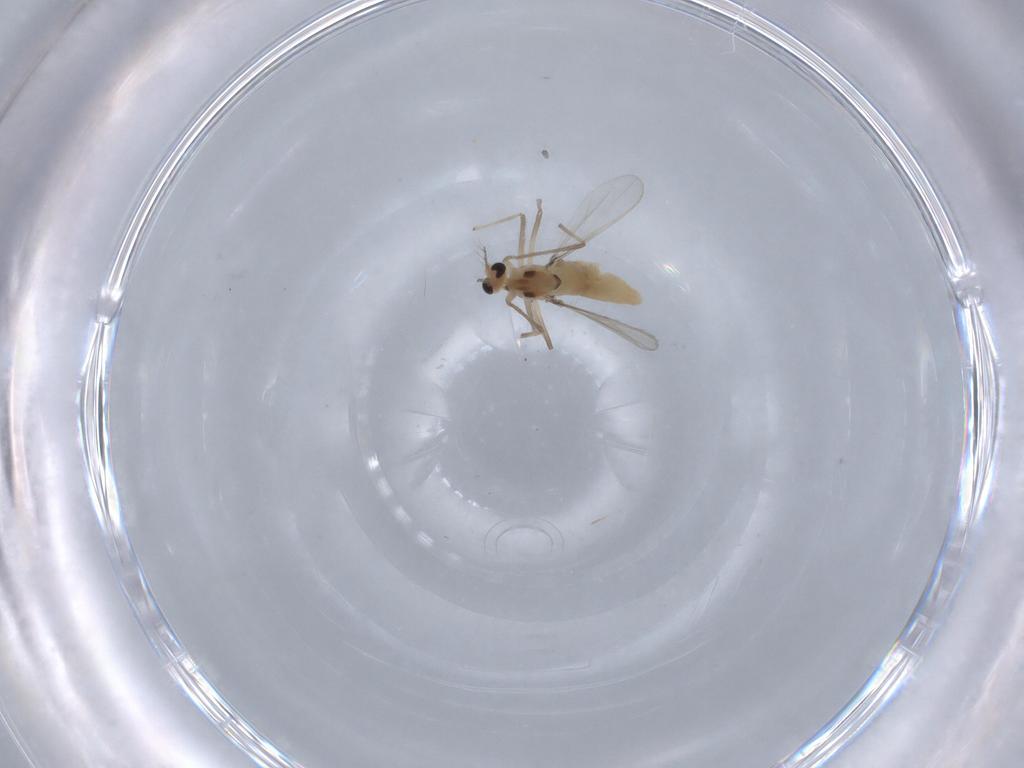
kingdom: Animalia
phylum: Arthropoda
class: Insecta
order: Diptera
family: Chironomidae
